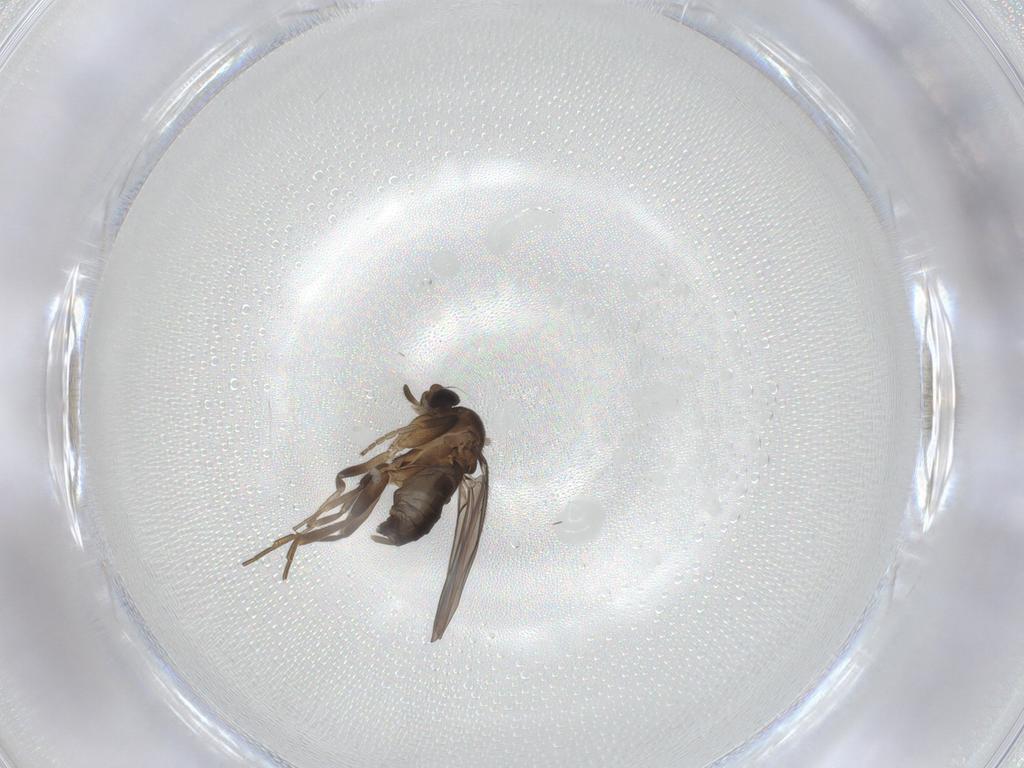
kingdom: Animalia
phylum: Arthropoda
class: Insecta
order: Diptera
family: Phoridae
